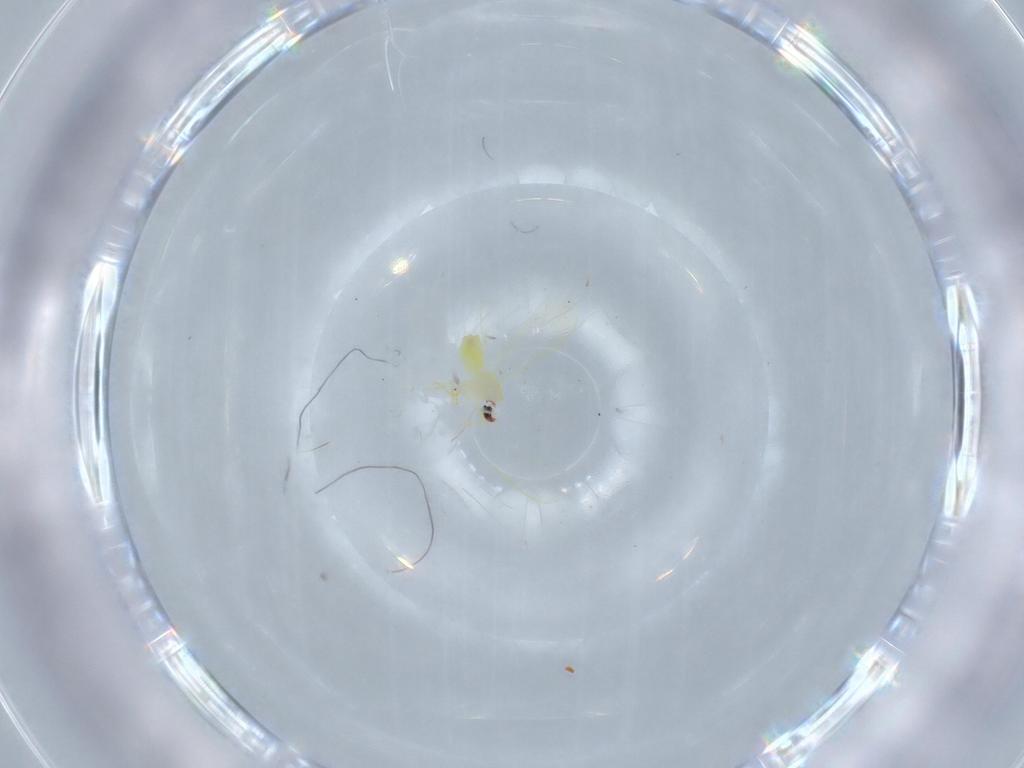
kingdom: Animalia
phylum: Arthropoda
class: Insecta
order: Hemiptera
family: Aleyrodidae
